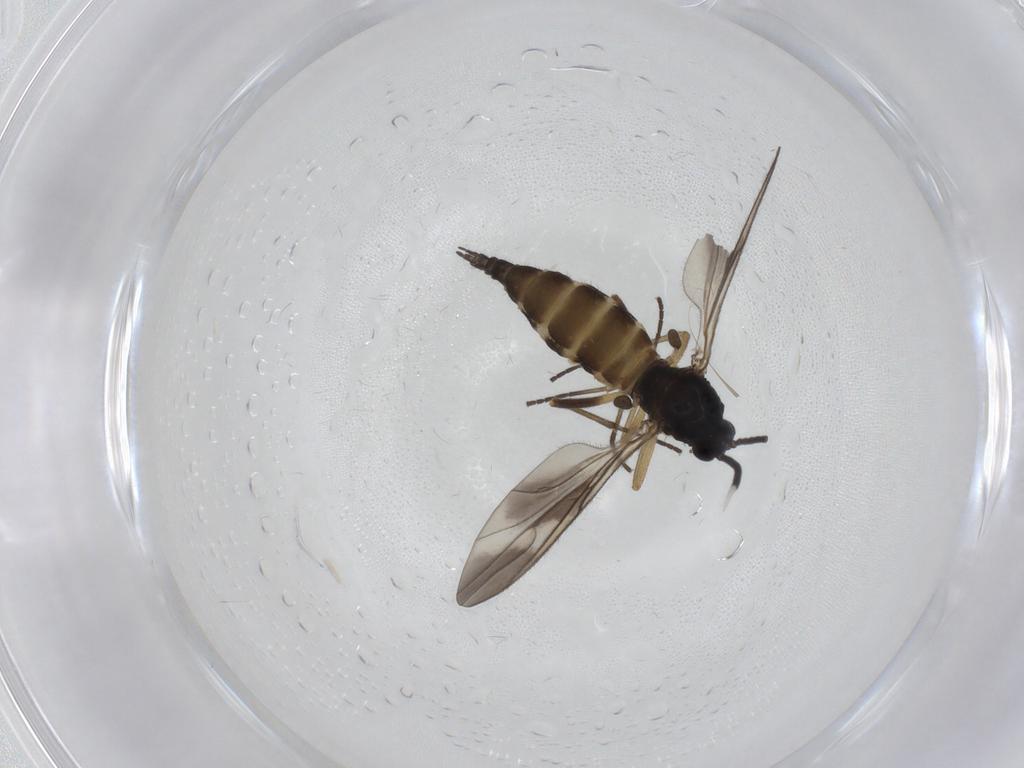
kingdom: Animalia
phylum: Arthropoda
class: Insecta
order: Diptera
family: Sciaridae
